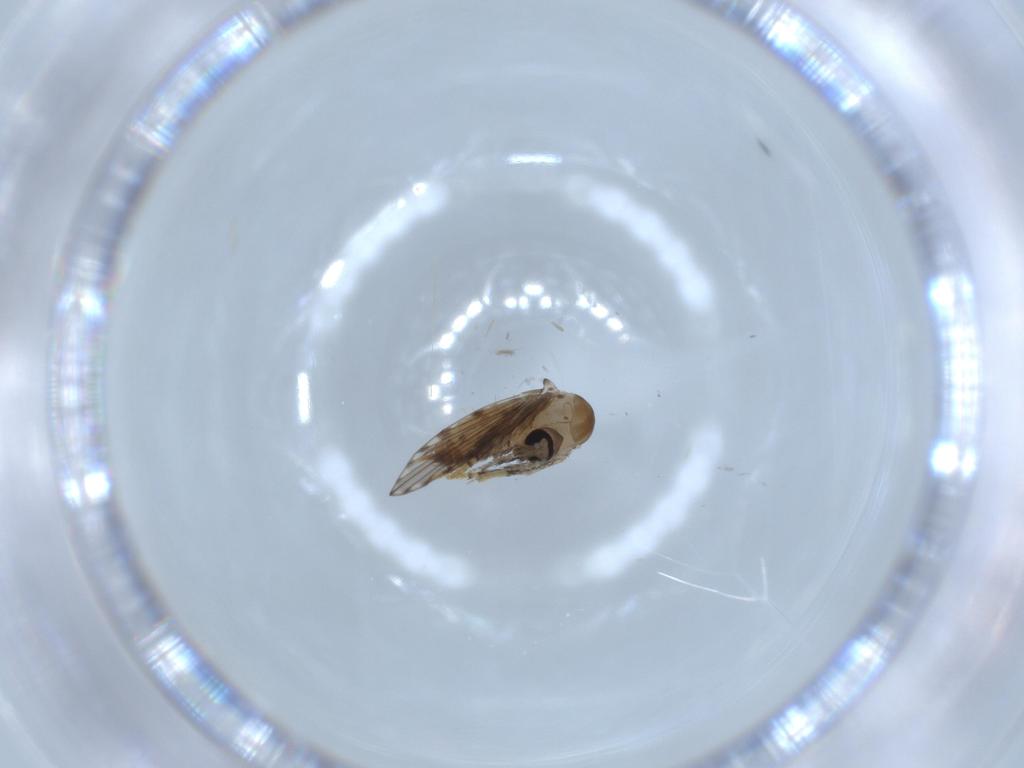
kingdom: Animalia
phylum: Arthropoda
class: Insecta
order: Diptera
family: Psychodidae
